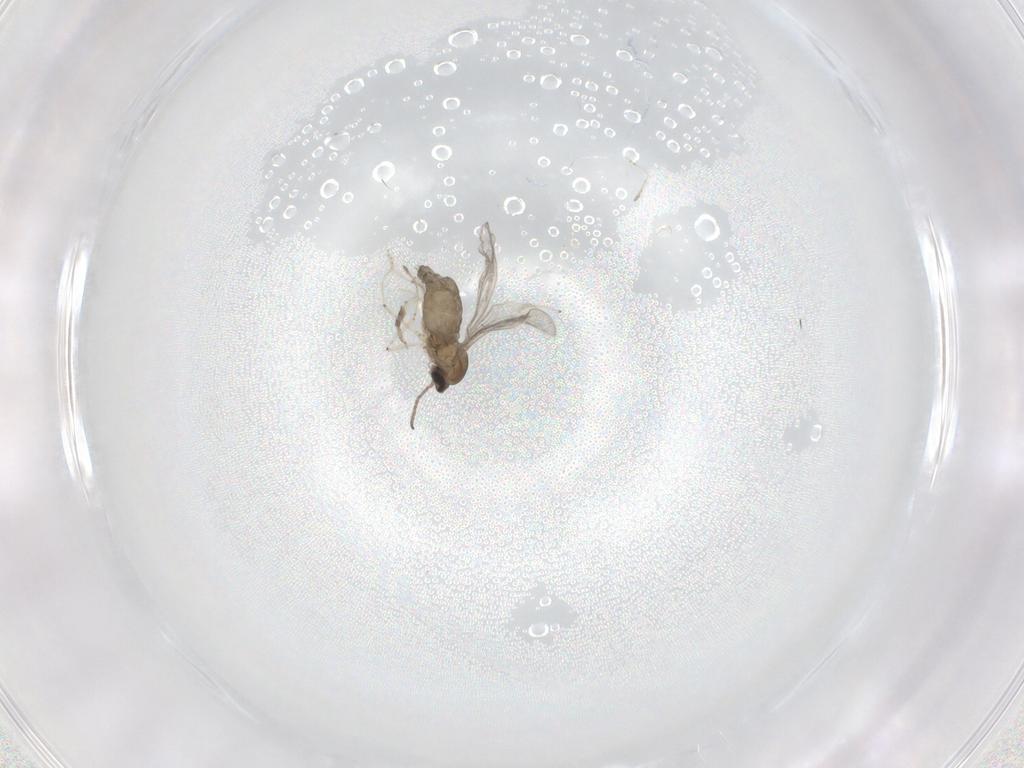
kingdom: Animalia
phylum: Arthropoda
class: Insecta
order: Diptera
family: Cecidomyiidae
